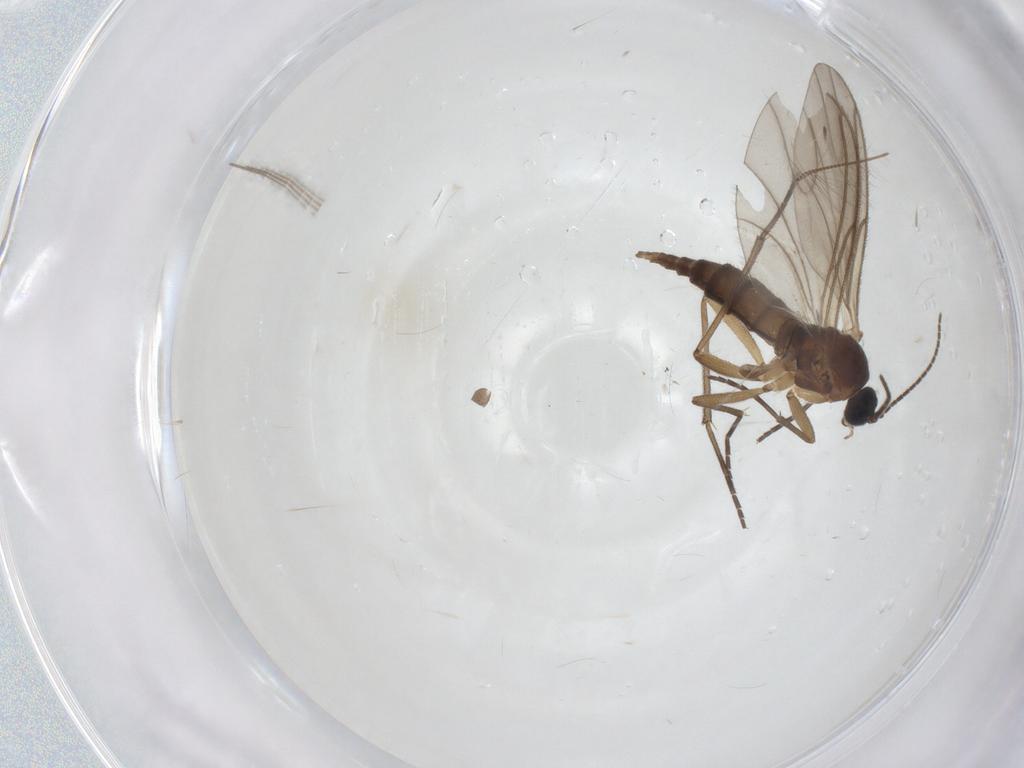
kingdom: Animalia
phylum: Arthropoda
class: Insecta
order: Diptera
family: Sciaridae
